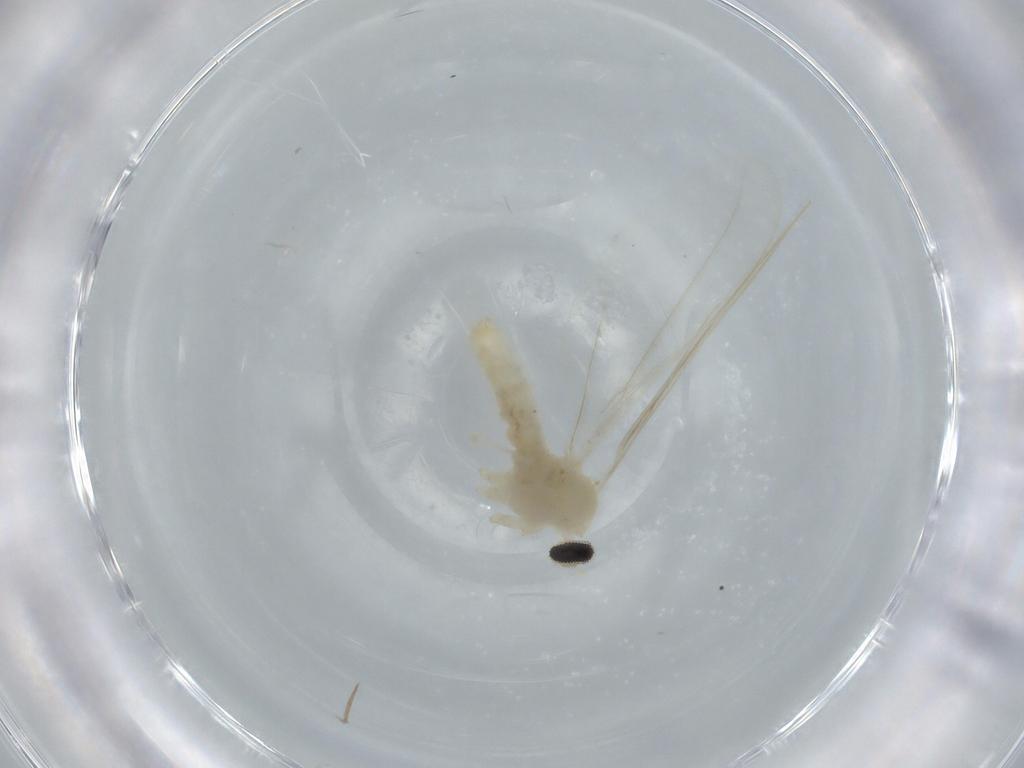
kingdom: Animalia
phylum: Arthropoda
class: Insecta
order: Diptera
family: Cecidomyiidae
